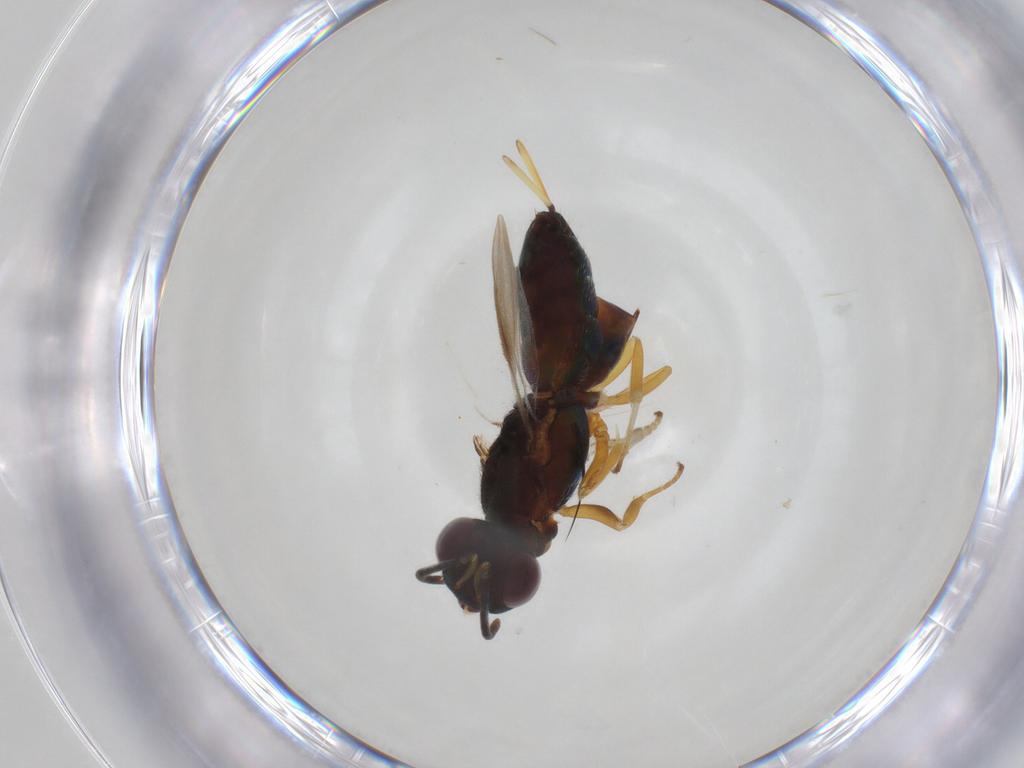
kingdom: Animalia
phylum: Arthropoda
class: Insecta
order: Hymenoptera
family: Eupelmidae
